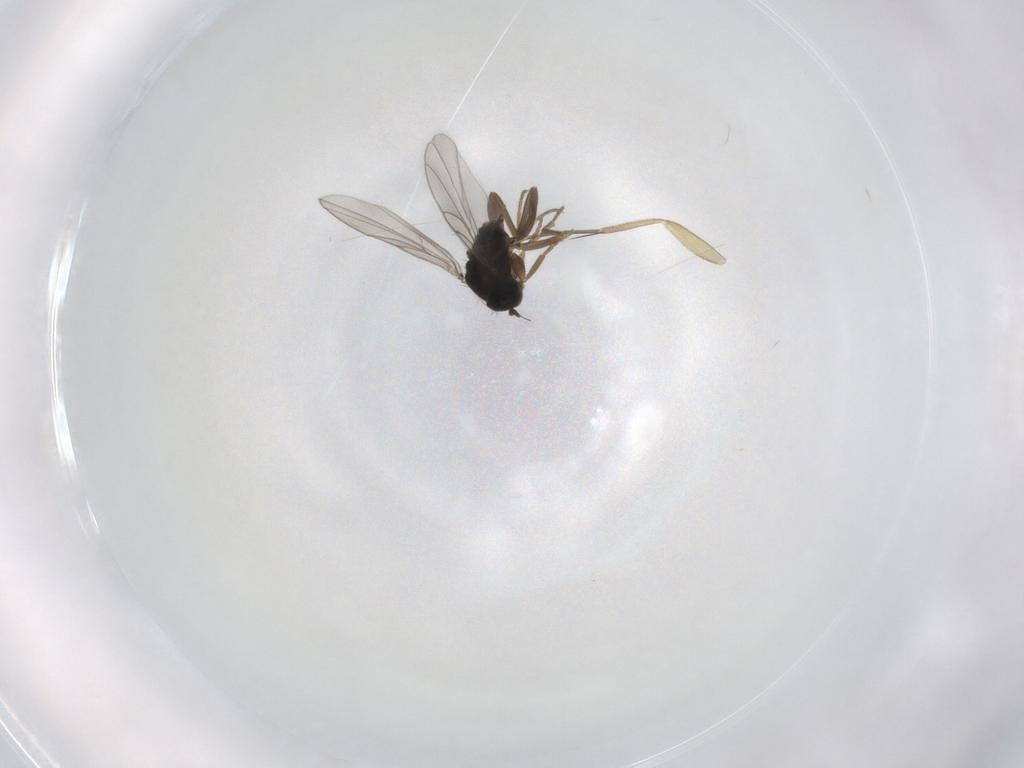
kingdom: Animalia
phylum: Arthropoda
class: Insecta
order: Diptera
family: Hybotidae
